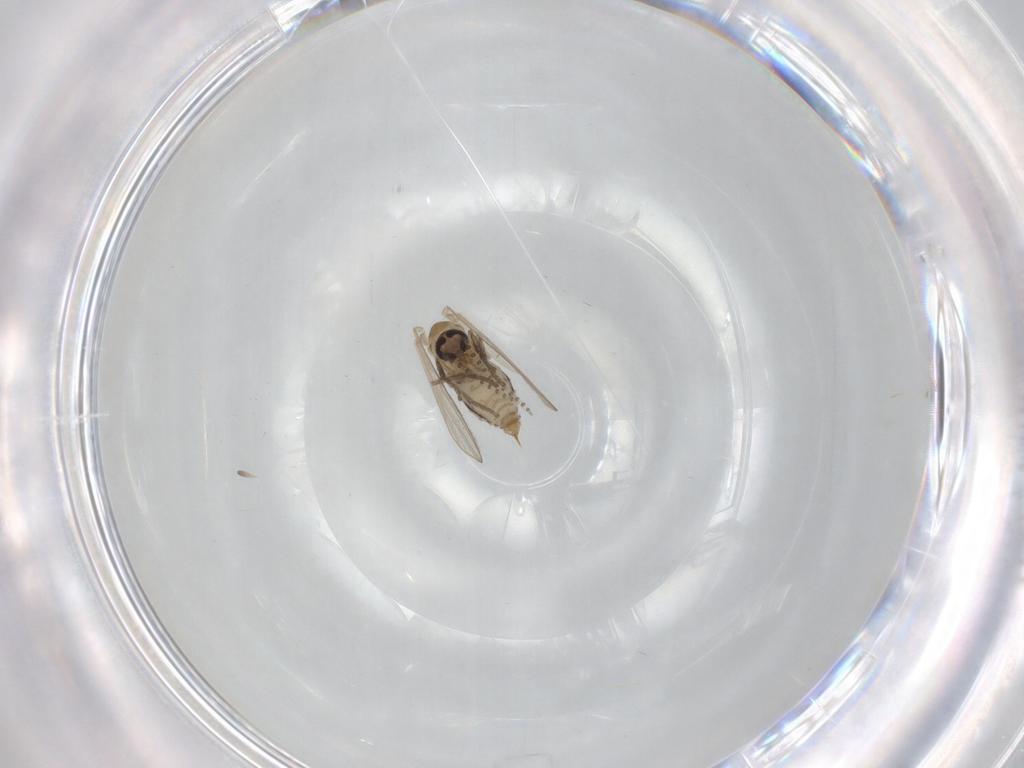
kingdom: Animalia
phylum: Arthropoda
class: Insecta
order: Diptera
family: Psychodidae
